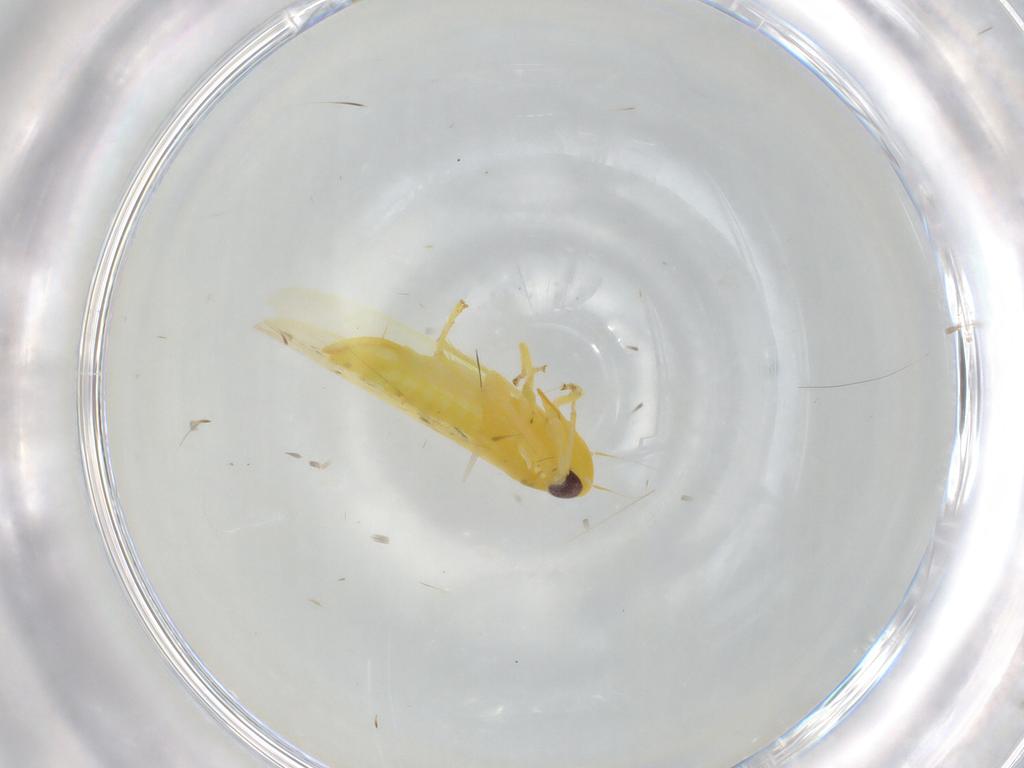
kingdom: Animalia
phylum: Arthropoda
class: Insecta
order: Hemiptera
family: Cicadellidae
